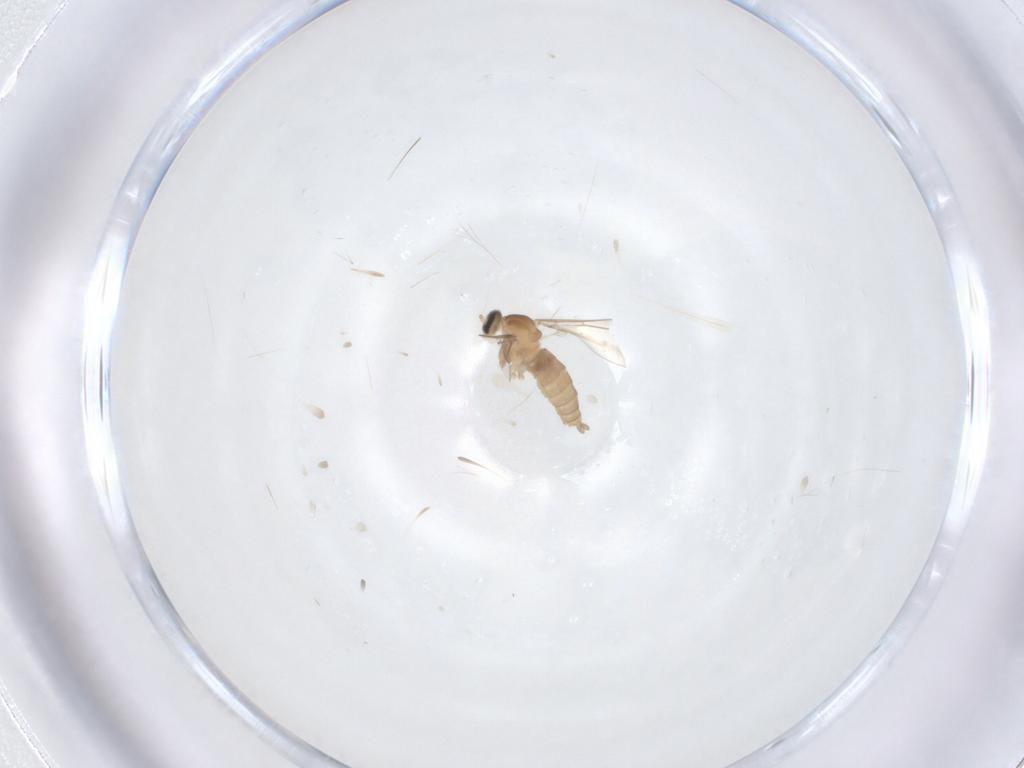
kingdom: Animalia
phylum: Arthropoda
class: Insecta
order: Diptera
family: Cecidomyiidae
